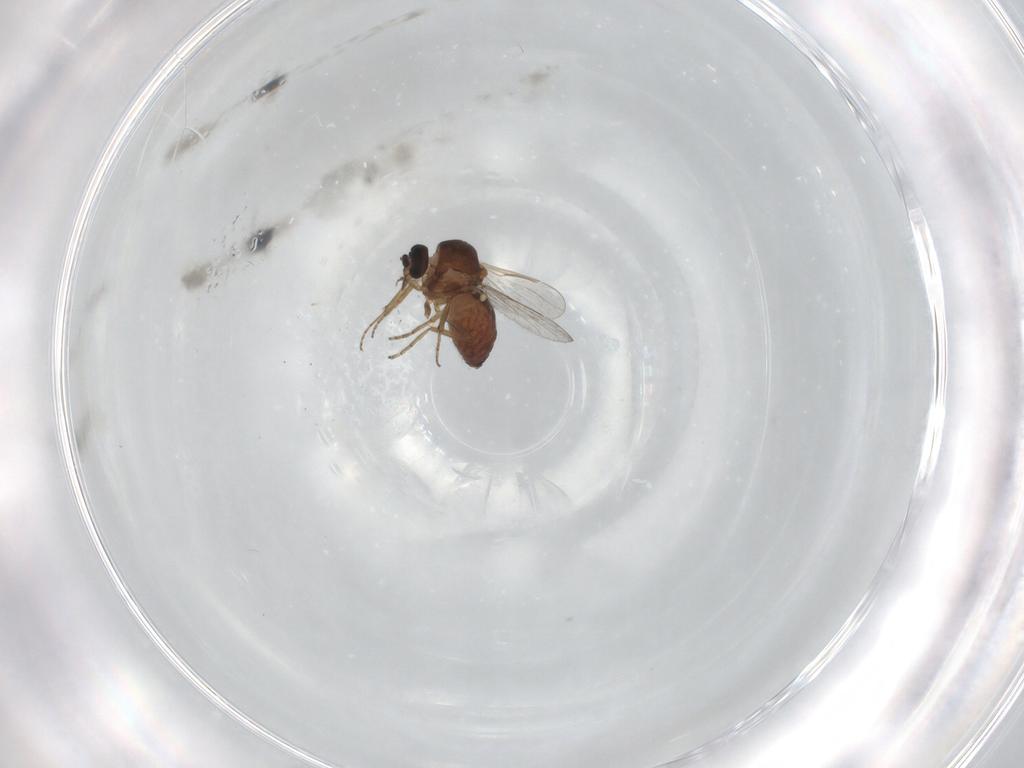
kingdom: Animalia
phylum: Arthropoda
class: Insecta
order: Diptera
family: Ceratopogonidae
